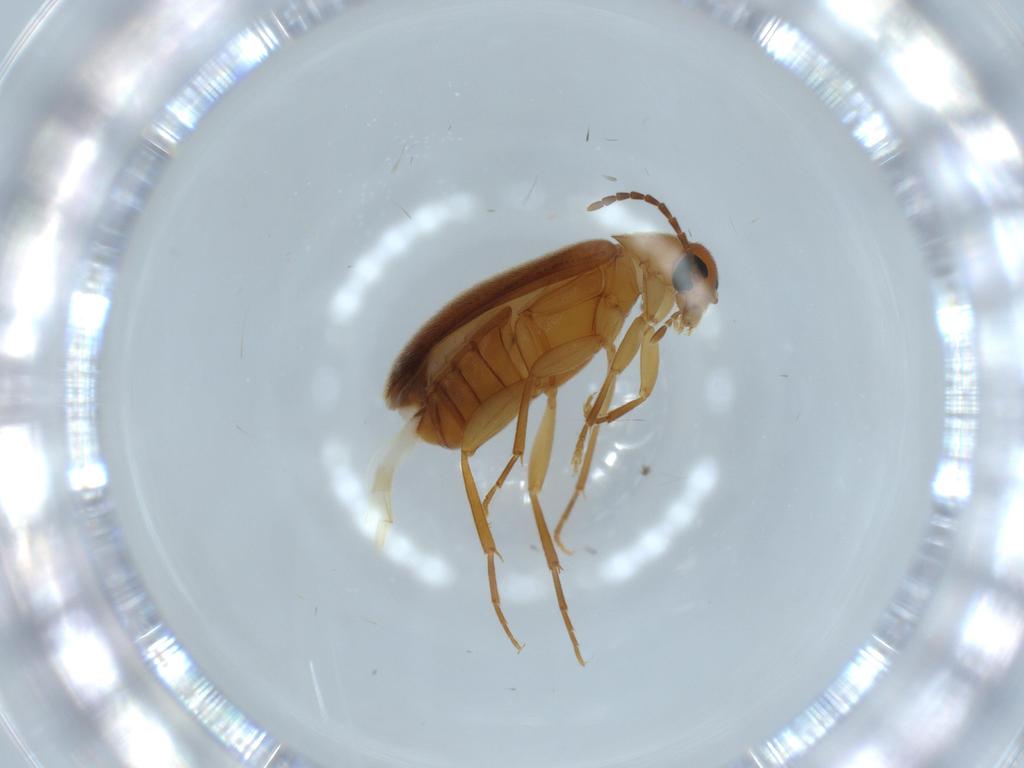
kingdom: Animalia
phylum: Arthropoda
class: Insecta
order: Coleoptera
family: Scraptiidae
